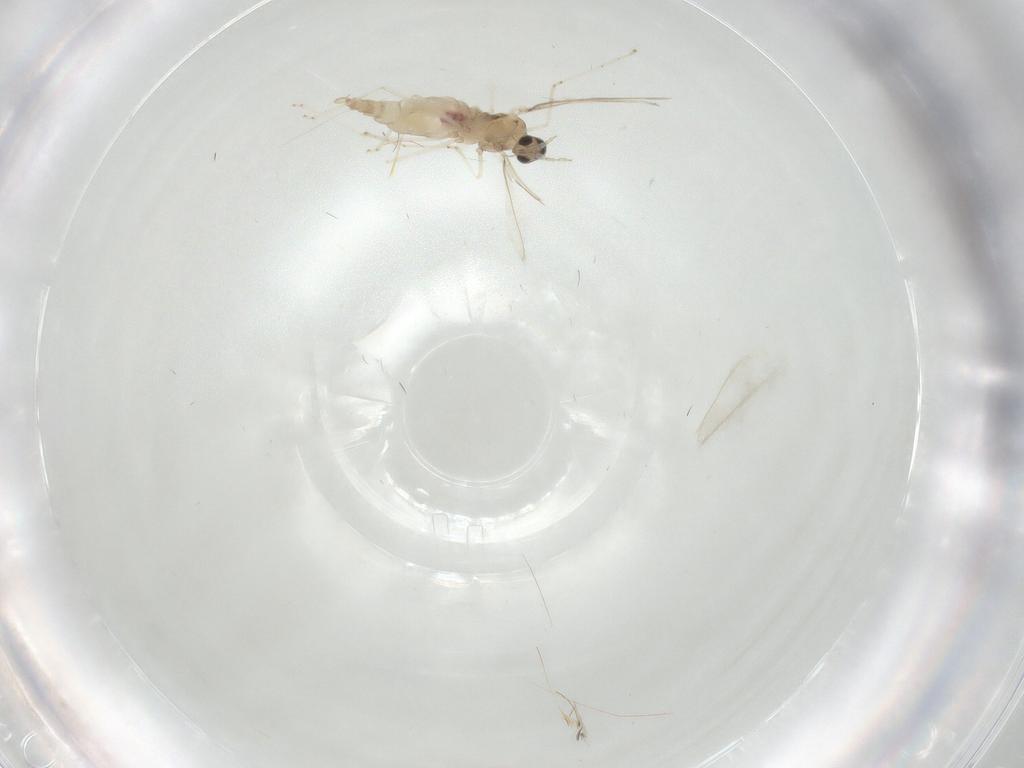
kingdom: Animalia
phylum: Arthropoda
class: Insecta
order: Diptera
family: Cecidomyiidae
